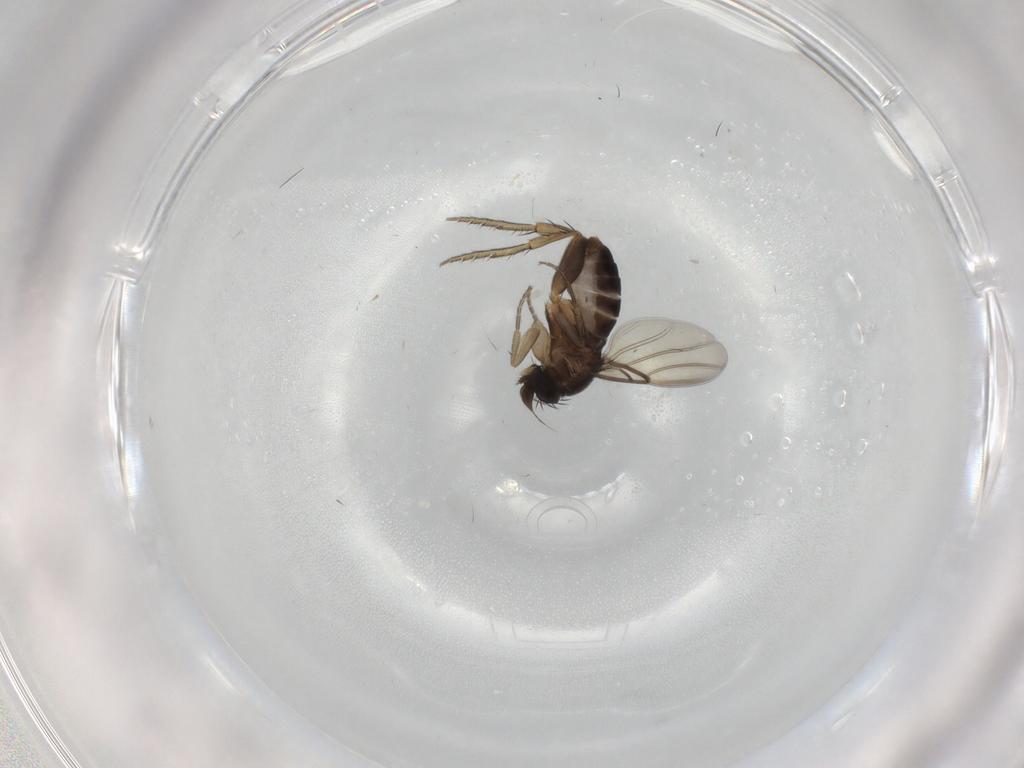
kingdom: Animalia
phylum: Arthropoda
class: Insecta
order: Diptera
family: Phoridae
